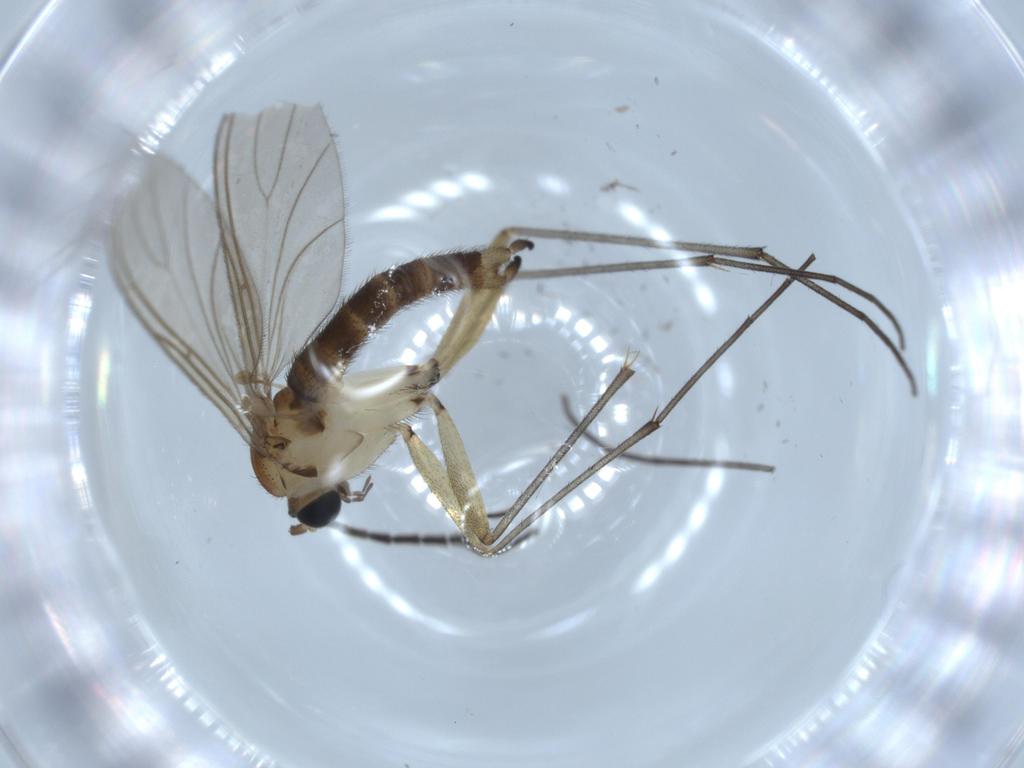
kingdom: Animalia
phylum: Arthropoda
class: Insecta
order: Diptera
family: Sciaridae
